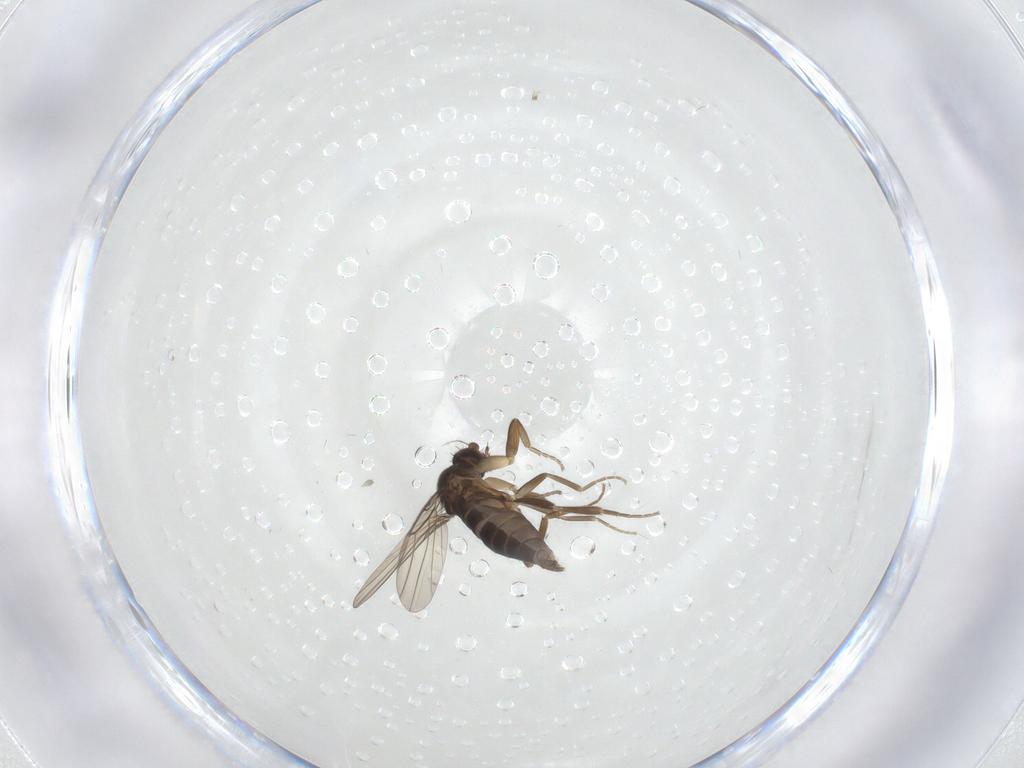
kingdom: Animalia
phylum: Arthropoda
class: Insecta
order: Diptera
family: Phoridae
